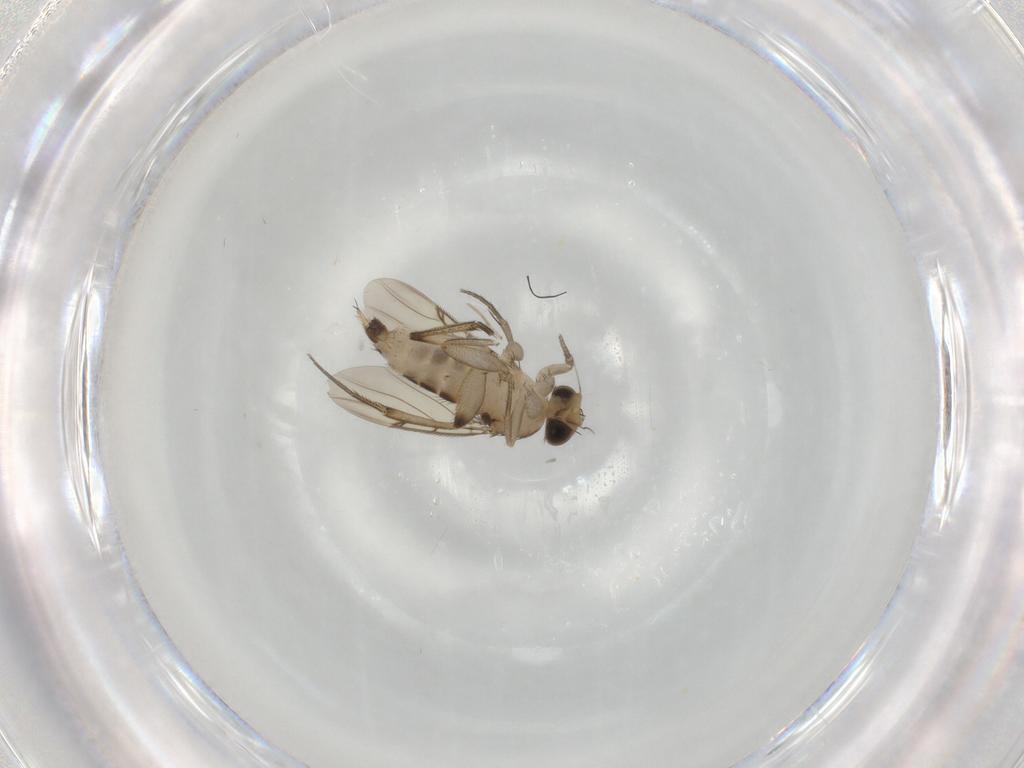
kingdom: Animalia
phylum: Arthropoda
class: Insecta
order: Diptera
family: Phoridae
